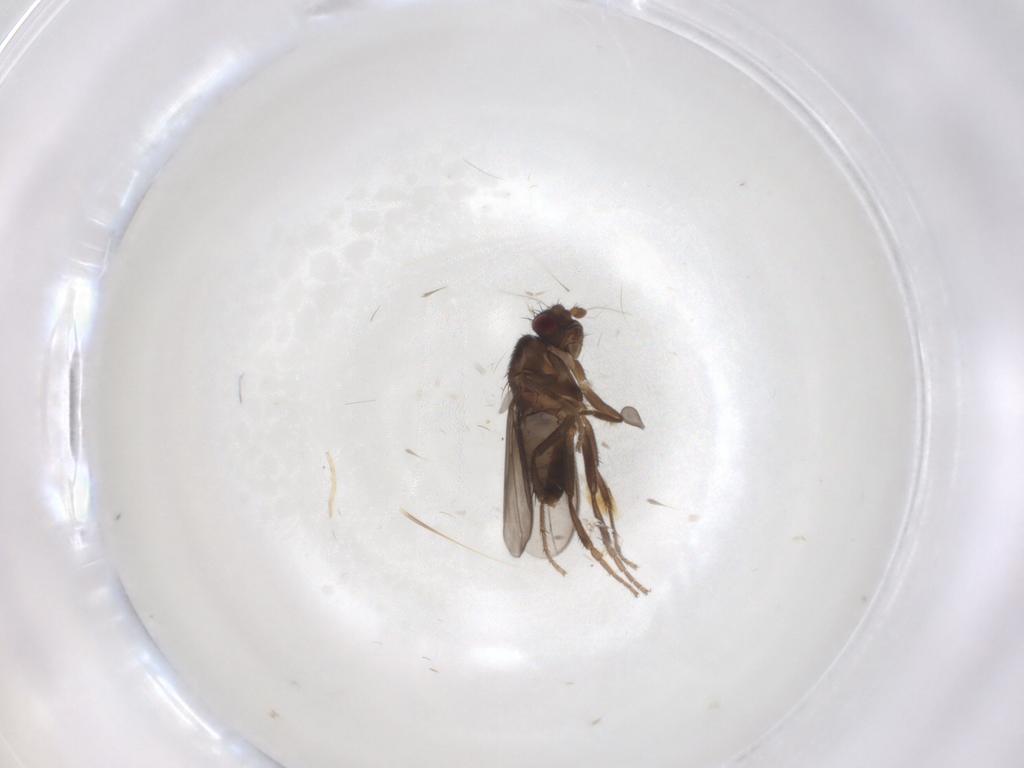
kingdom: Animalia
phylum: Arthropoda
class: Insecta
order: Diptera
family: Sphaeroceridae
